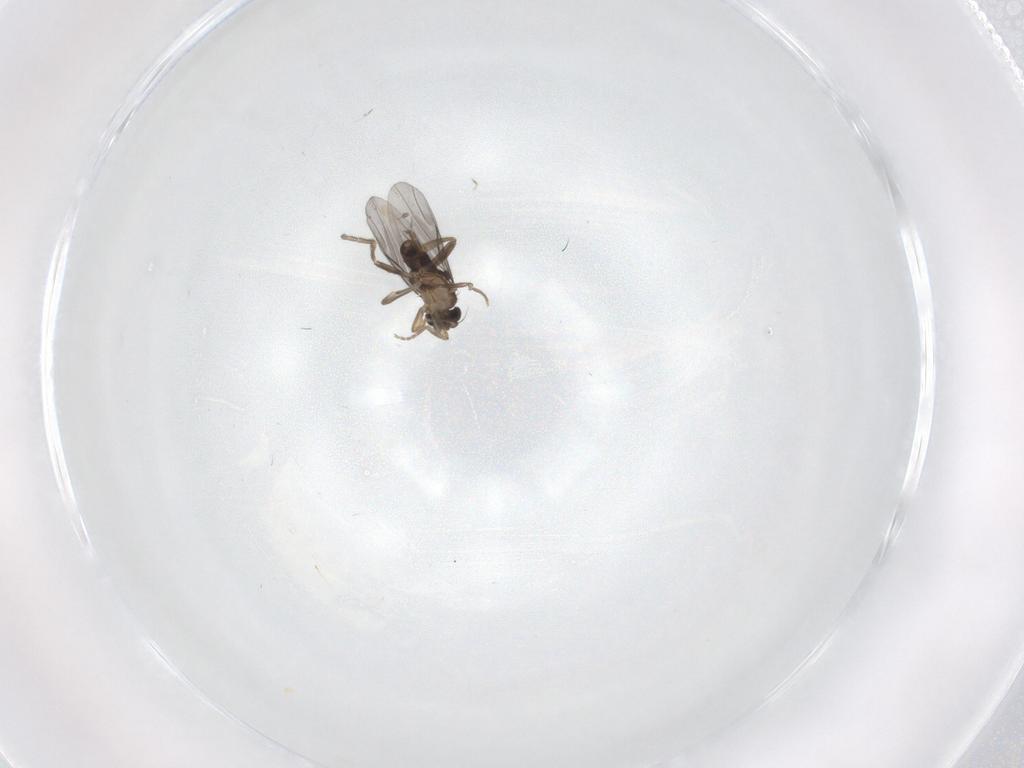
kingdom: Animalia
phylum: Arthropoda
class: Insecta
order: Diptera
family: Cecidomyiidae
